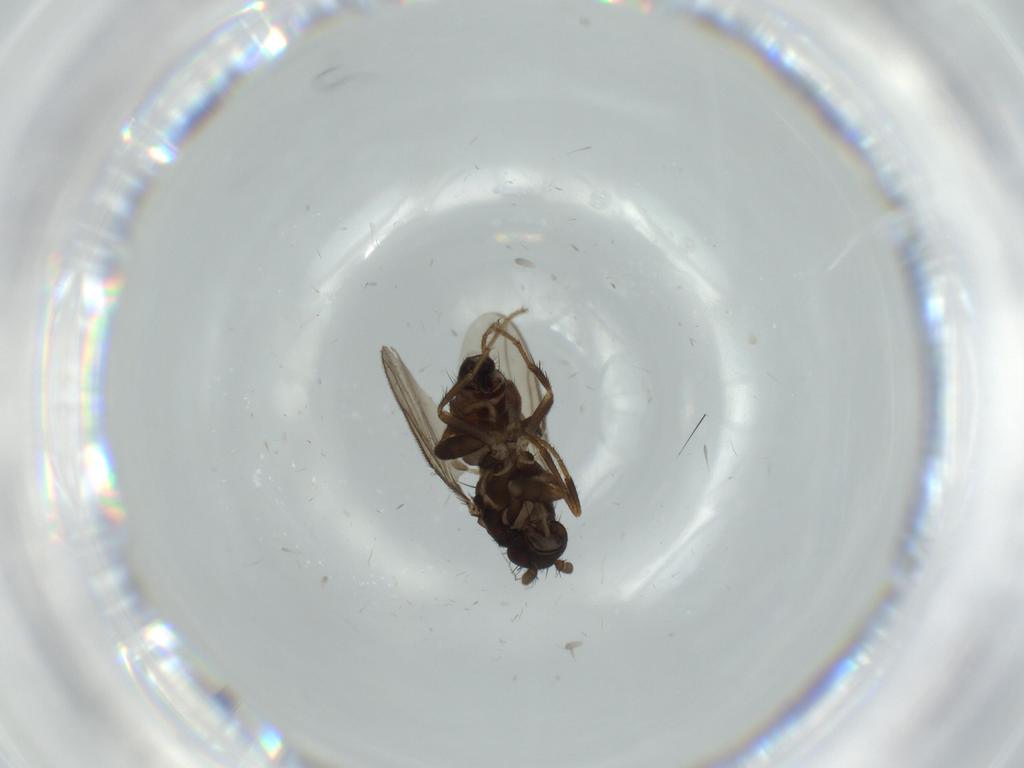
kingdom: Animalia
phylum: Arthropoda
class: Insecta
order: Diptera
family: Sphaeroceridae
